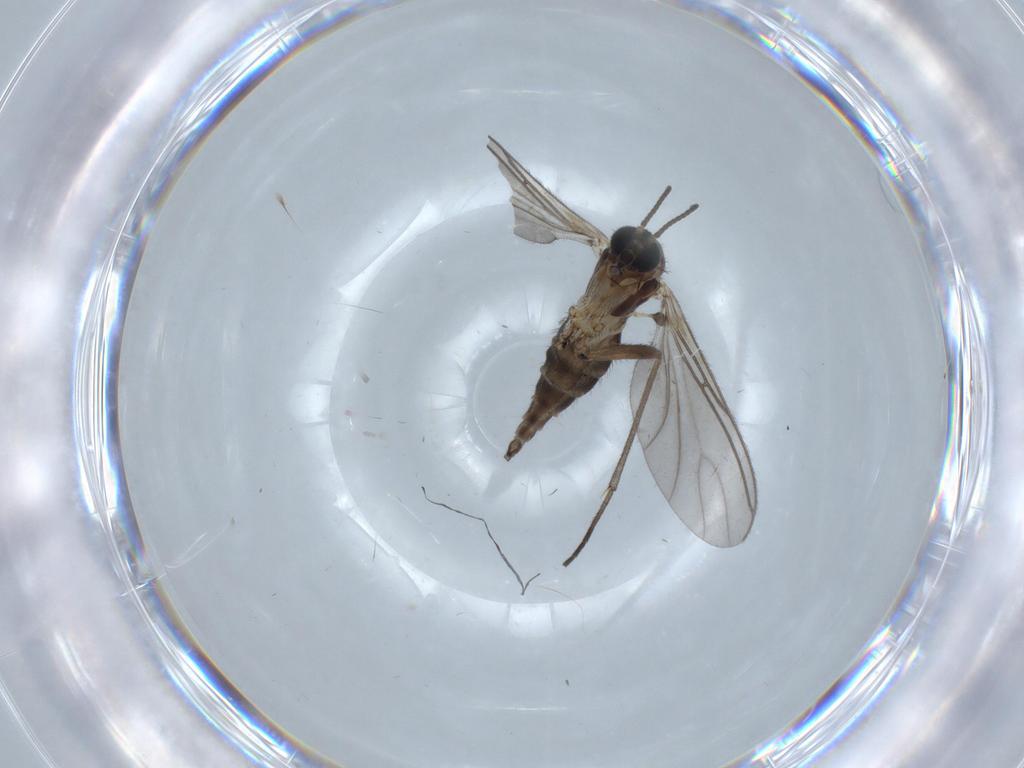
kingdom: Animalia
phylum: Arthropoda
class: Insecta
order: Diptera
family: Sciaridae
